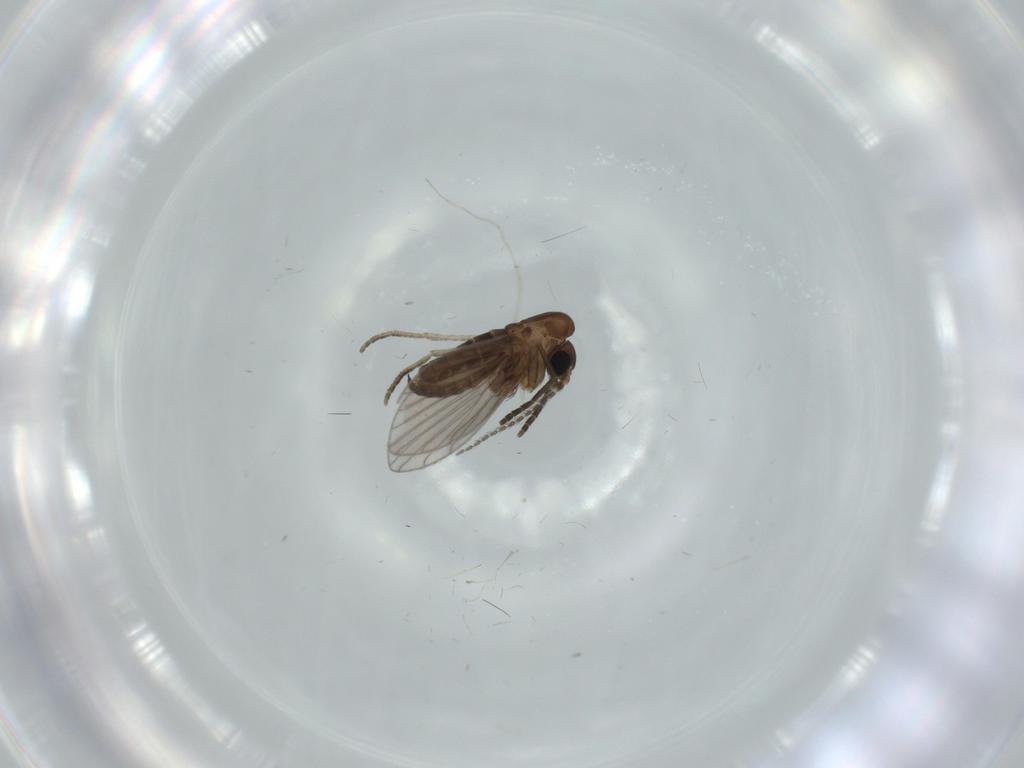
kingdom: Animalia
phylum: Arthropoda
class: Insecta
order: Diptera
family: Psychodidae
